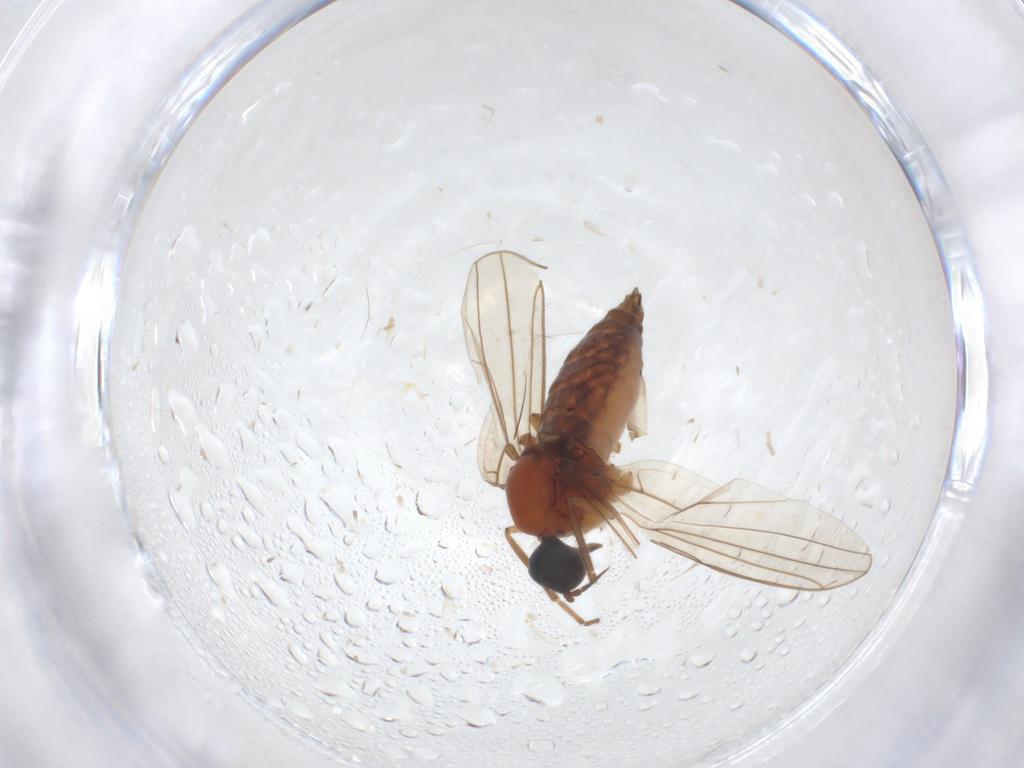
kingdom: Animalia
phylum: Arthropoda
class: Insecta
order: Diptera
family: Hybotidae
